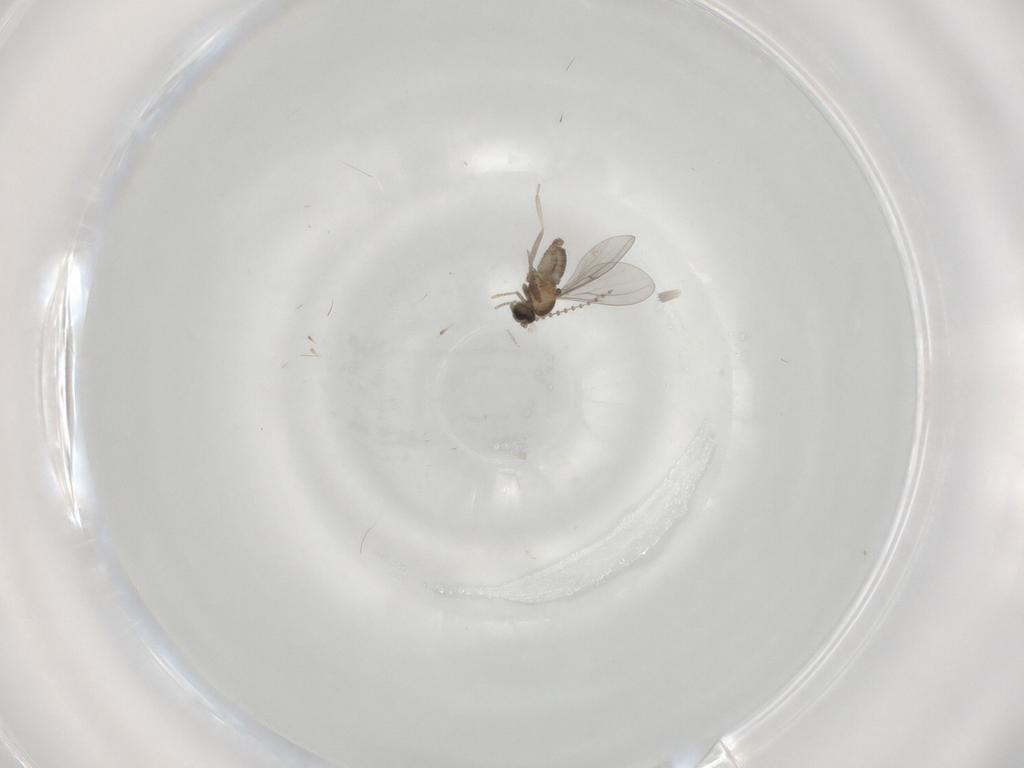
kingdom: Animalia
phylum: Arthropoda
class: Insecta
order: Diptera
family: Cecidomyiidae
